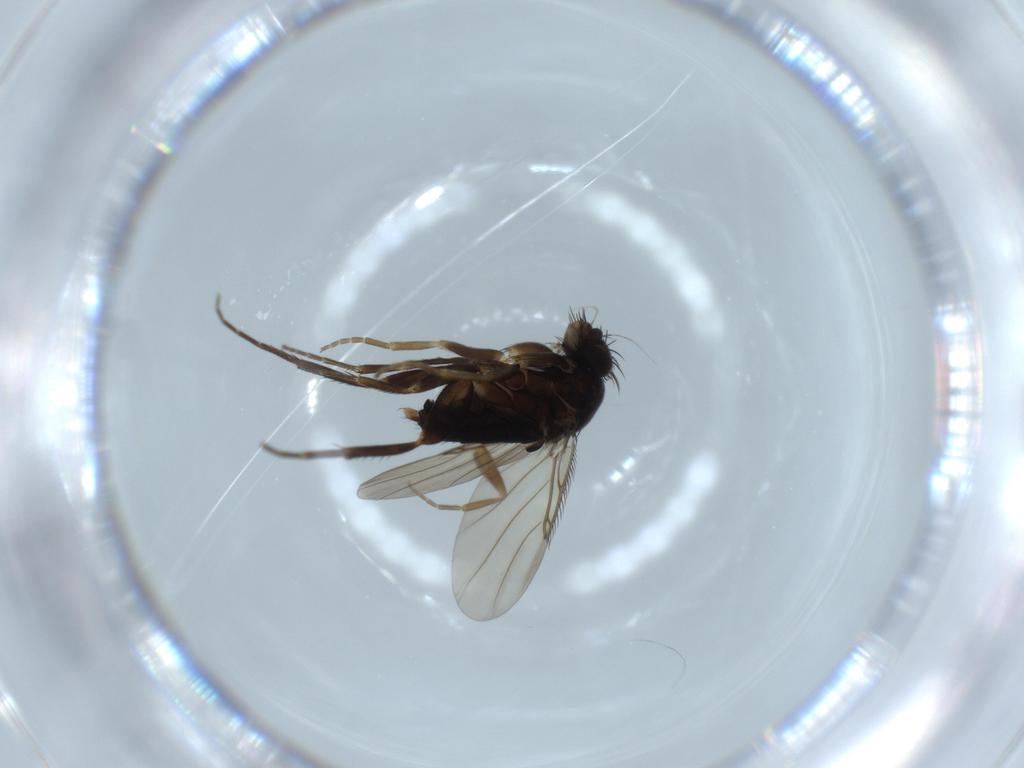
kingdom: Animalia
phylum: Arthropoda
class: Insecta
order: Diptera
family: Phoridae
